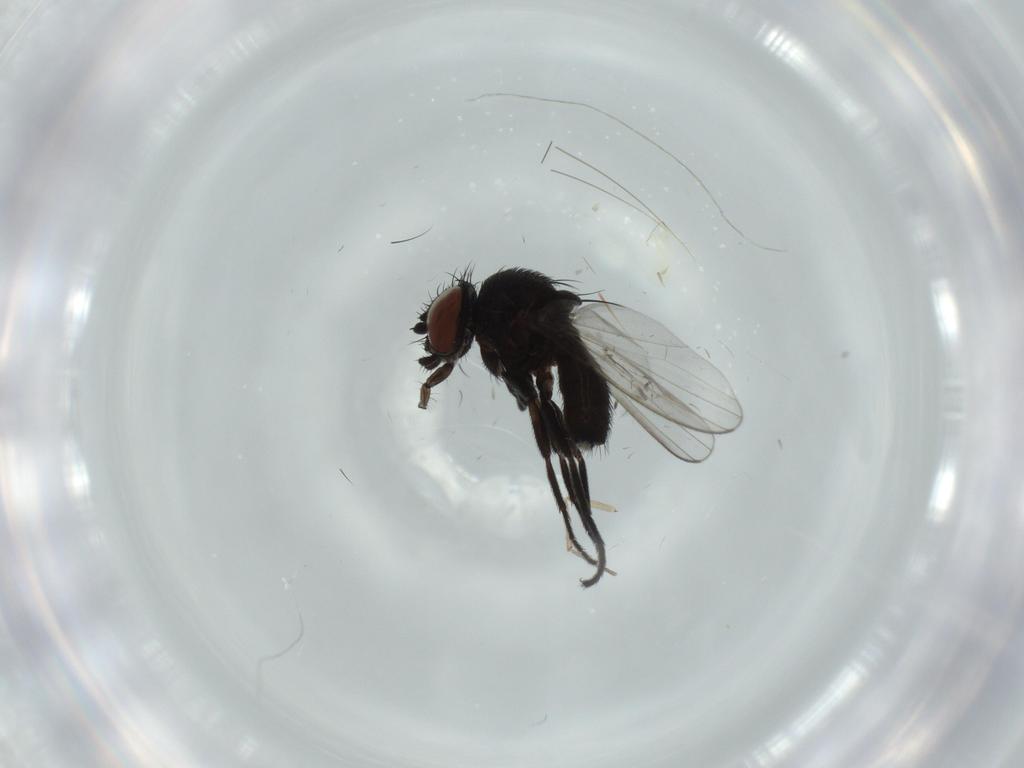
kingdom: Animalia
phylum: Arthropoda
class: Insecta
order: Diptera
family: Milichiidae
